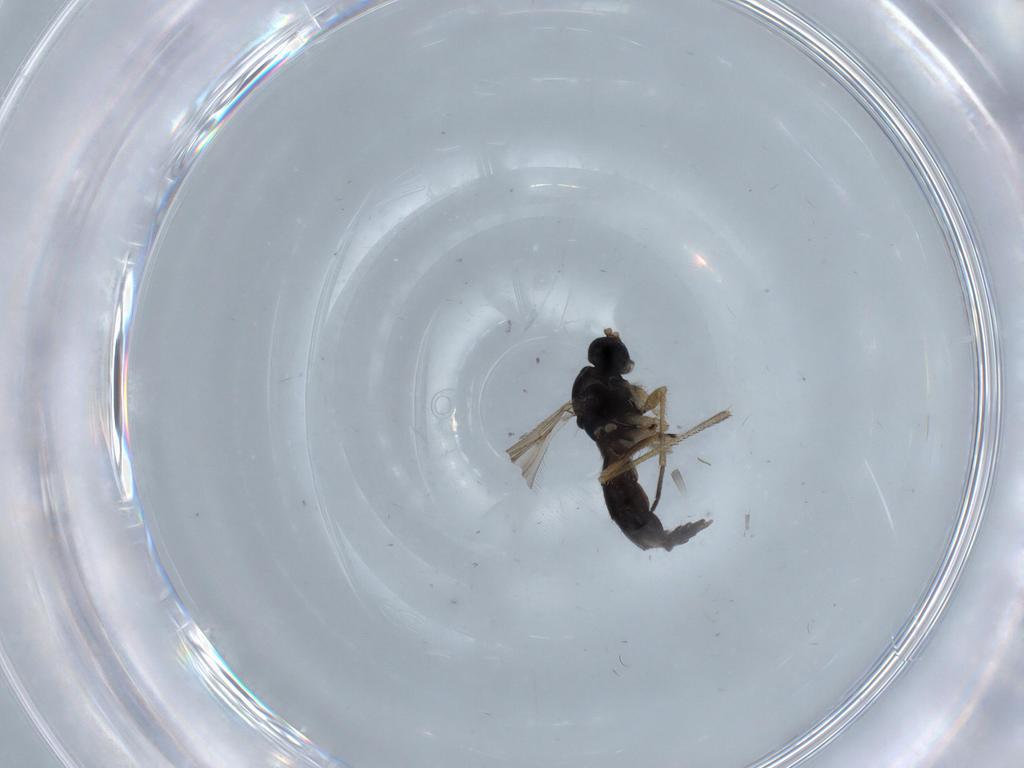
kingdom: Animalia
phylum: Arthropoda
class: Insecta
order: Diptera
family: Sciaridae
